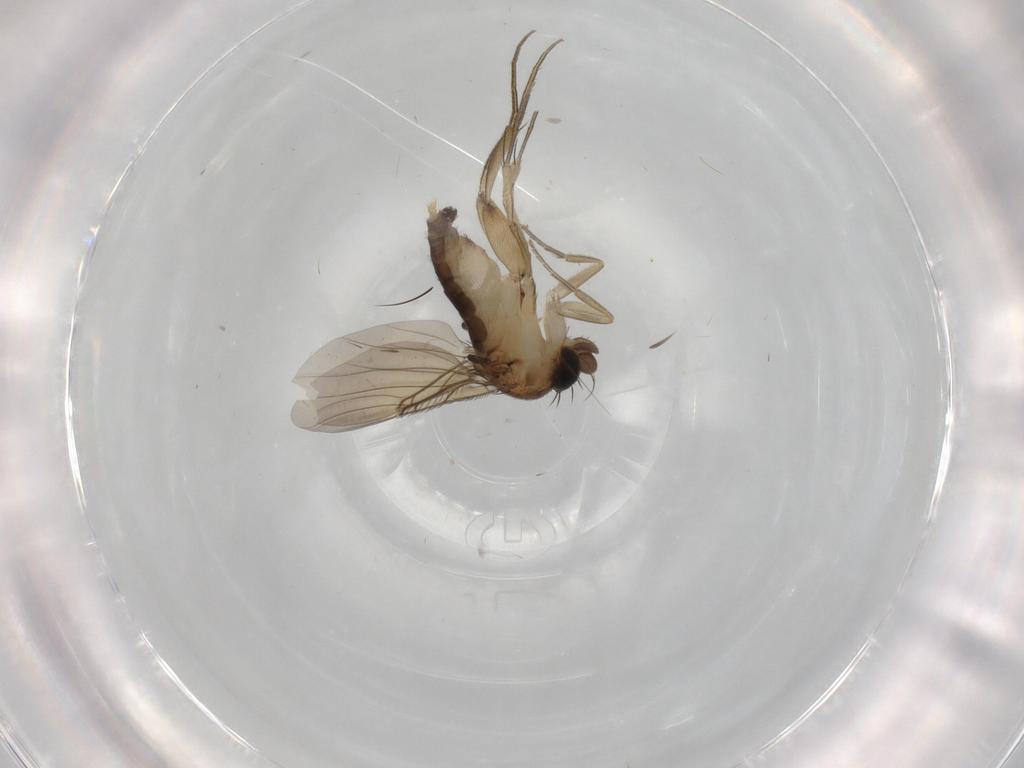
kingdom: Animalia
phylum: Arthropoda
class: Insecta
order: Diptera
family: Phoridae
